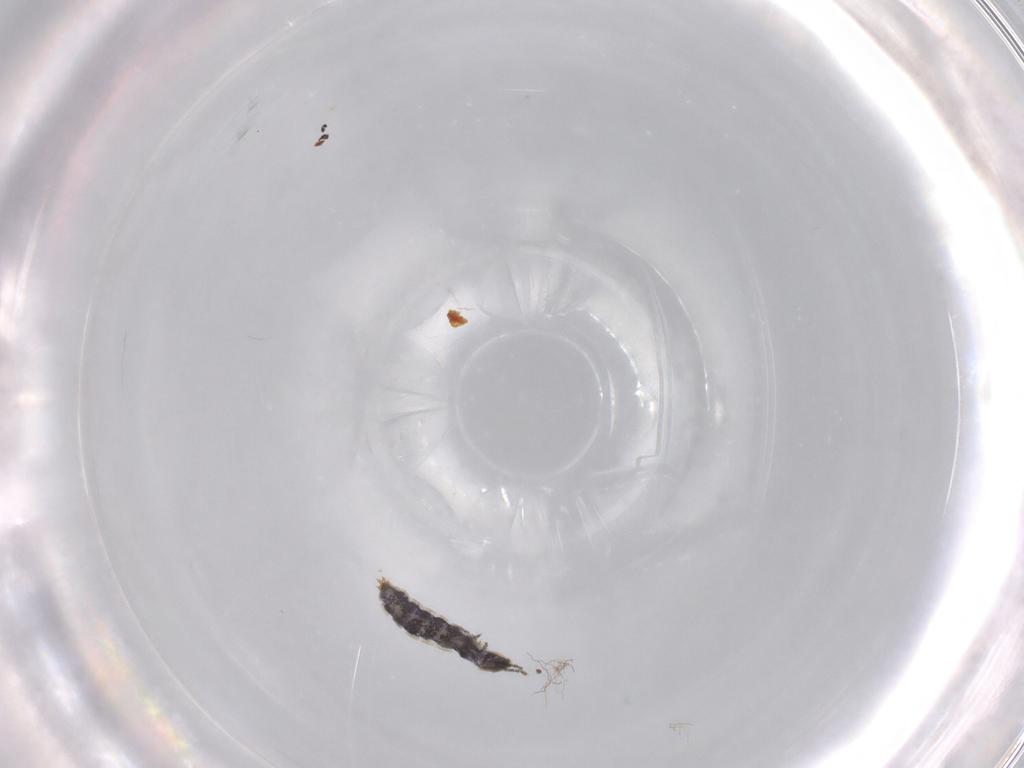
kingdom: Animalia
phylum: Arthropoda
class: Collembola
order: Entomobryomorpha
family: Isotomidae
